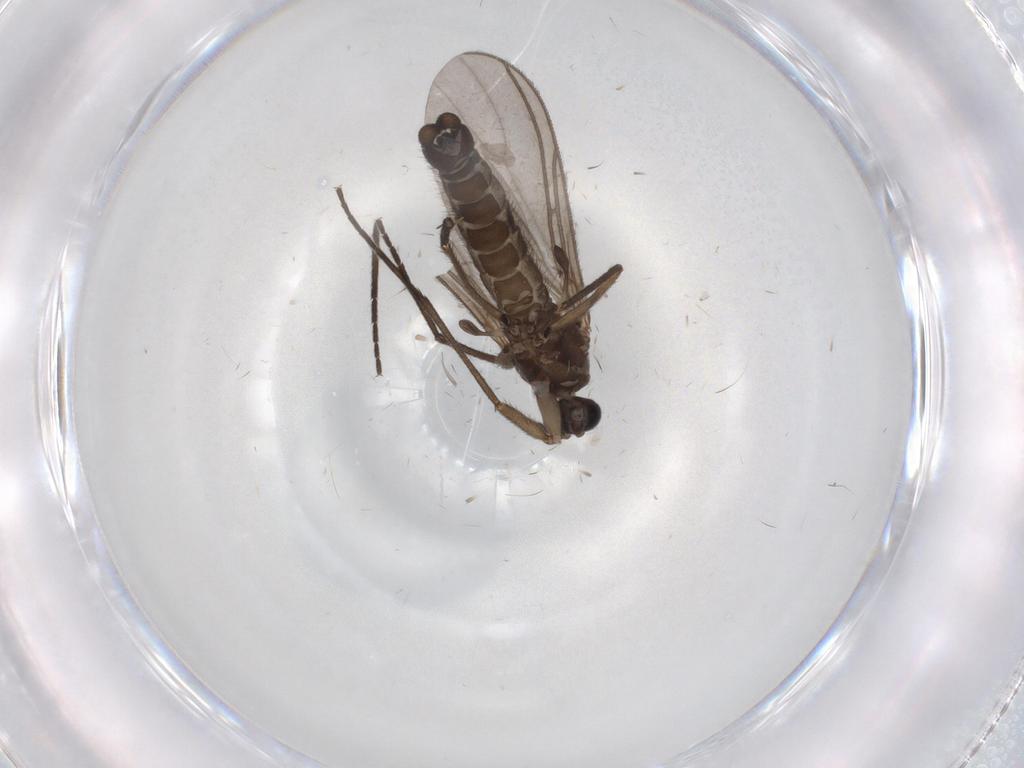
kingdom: Animalia
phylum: Arthropoda
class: Insecta
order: Diptera
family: Sciaridae
